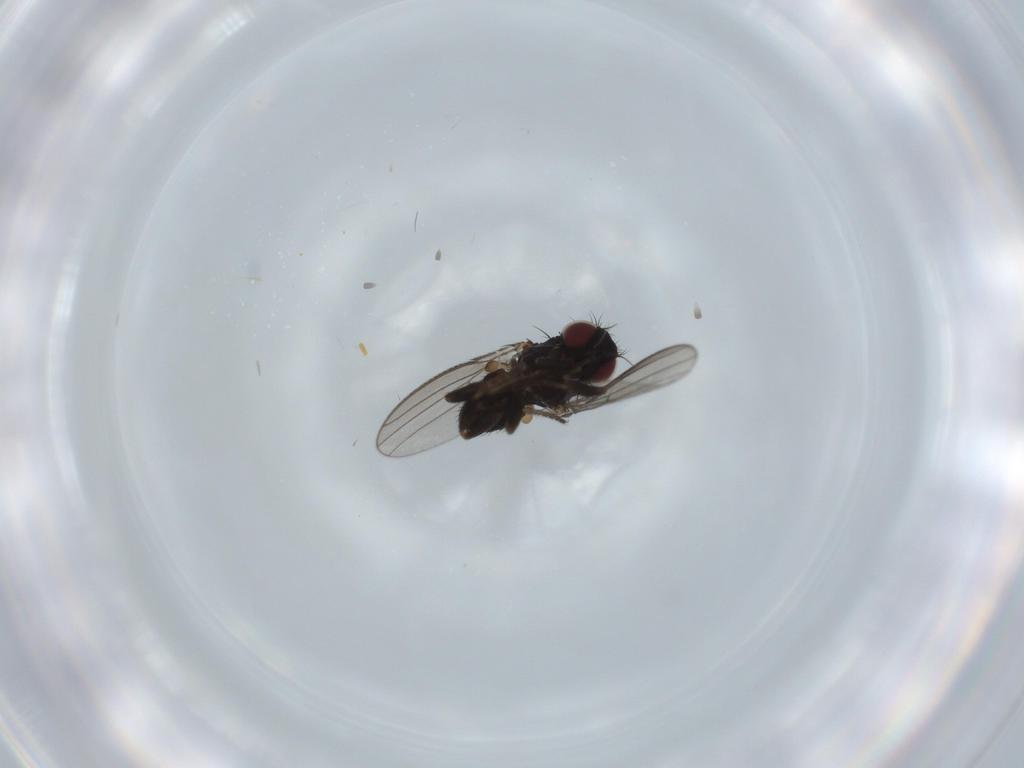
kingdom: Animalia
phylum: Arthropoda
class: Insecta
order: Diptera
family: Milichiidae
